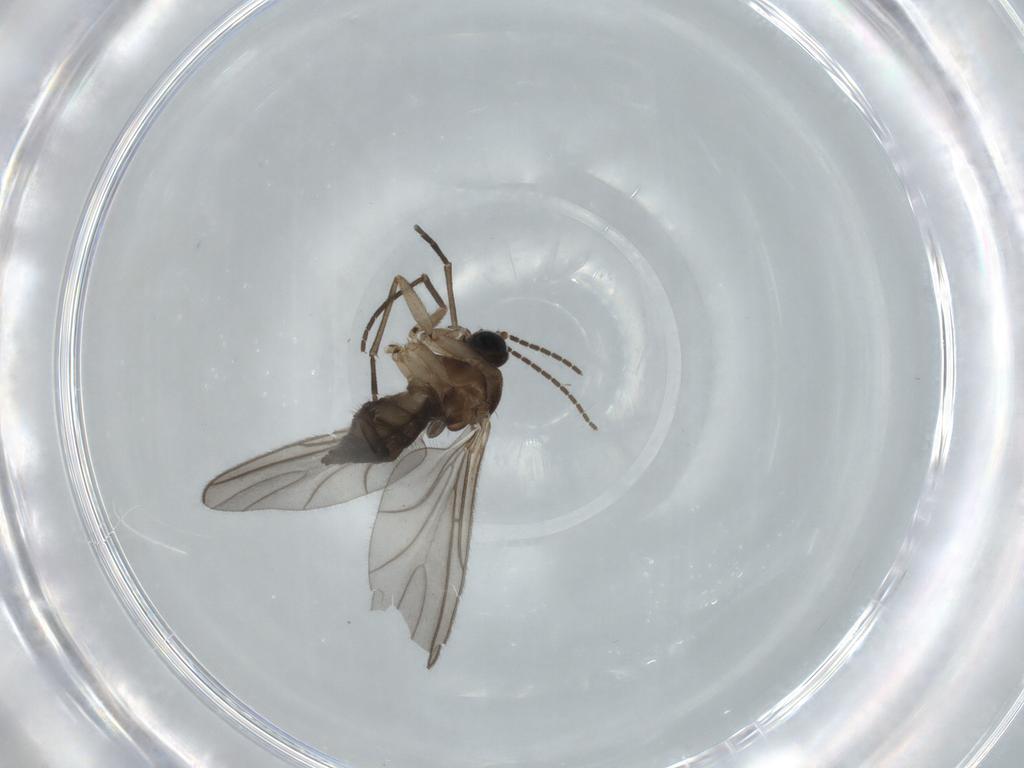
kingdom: Animalia
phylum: Arthropoda
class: Insecta
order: Diptera
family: Sciaridae
